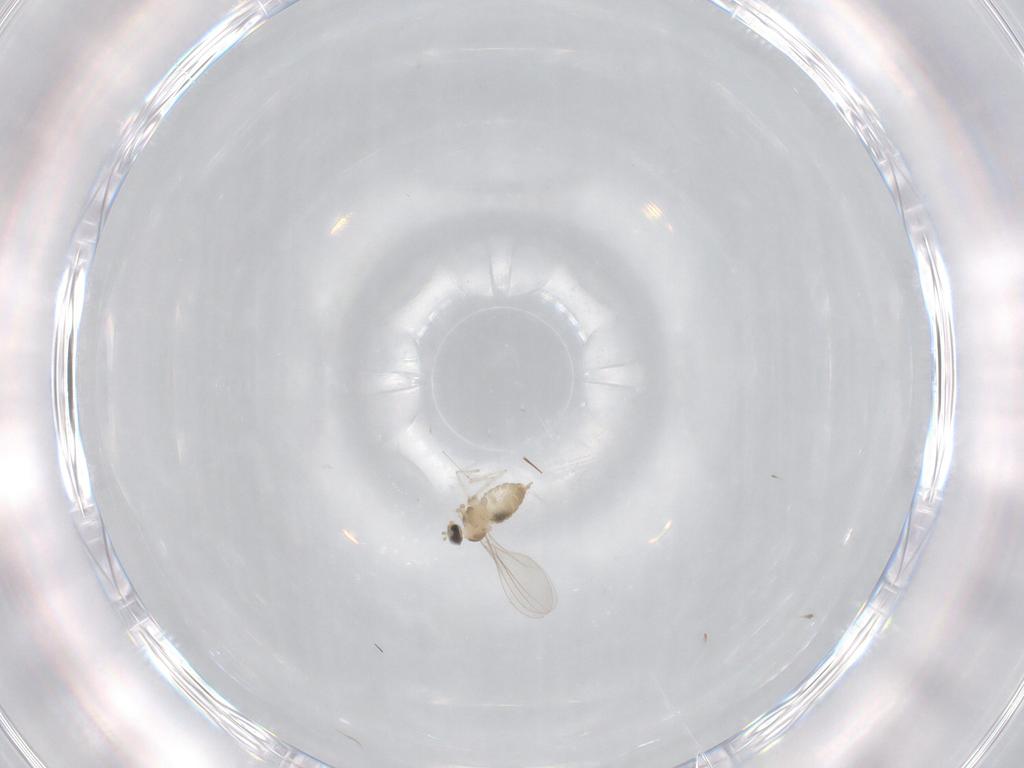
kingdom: Animalia
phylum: Arthropoda
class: Insecta
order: Diptera
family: Cecidomyiidae
